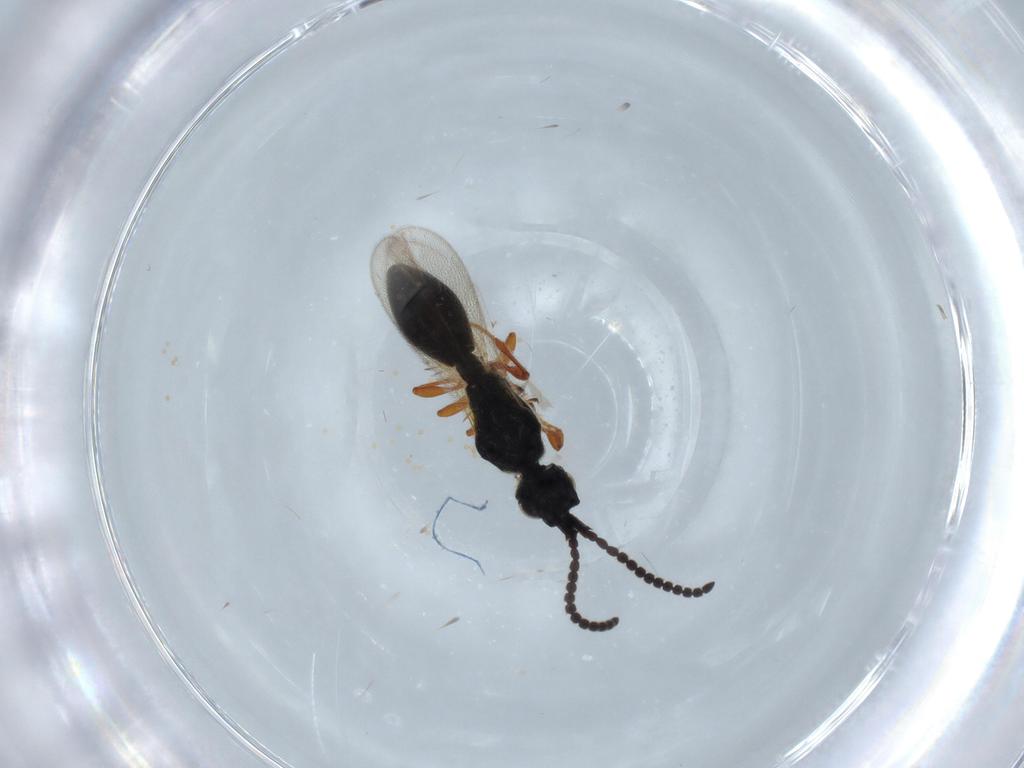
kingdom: Animalia
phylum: Arthropoda
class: Insecta
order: Hymenoptera
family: Diapriidae
